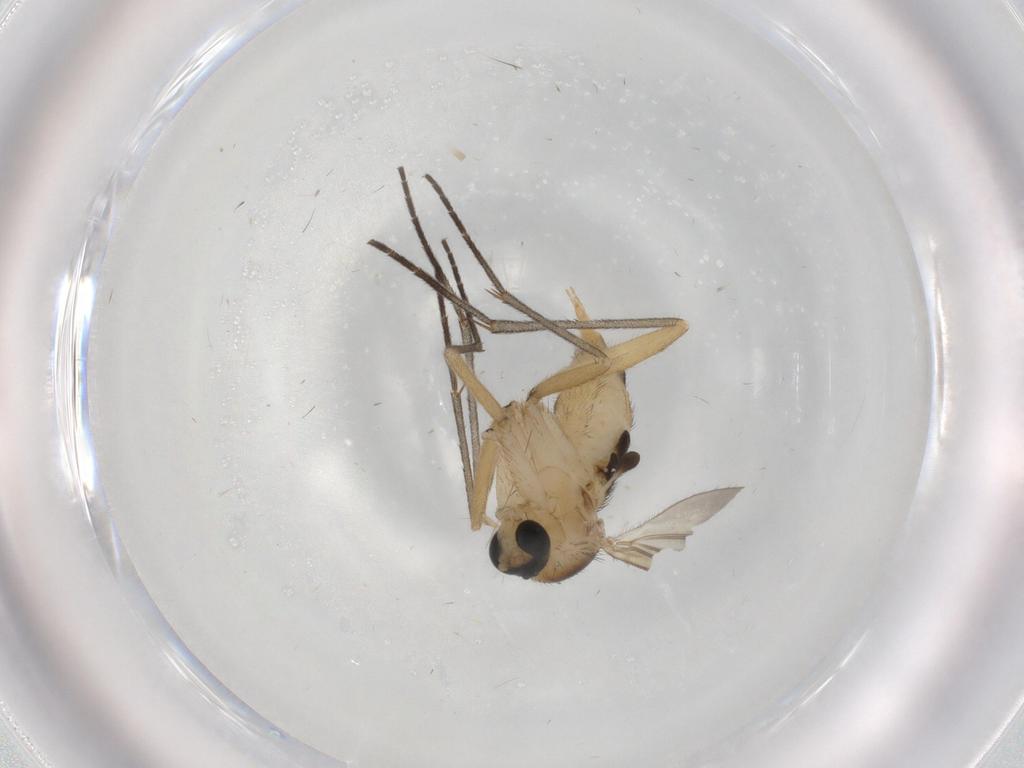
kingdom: Animalia
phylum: Arthropoda
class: Insecta
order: Diptera
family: Sciaridae
